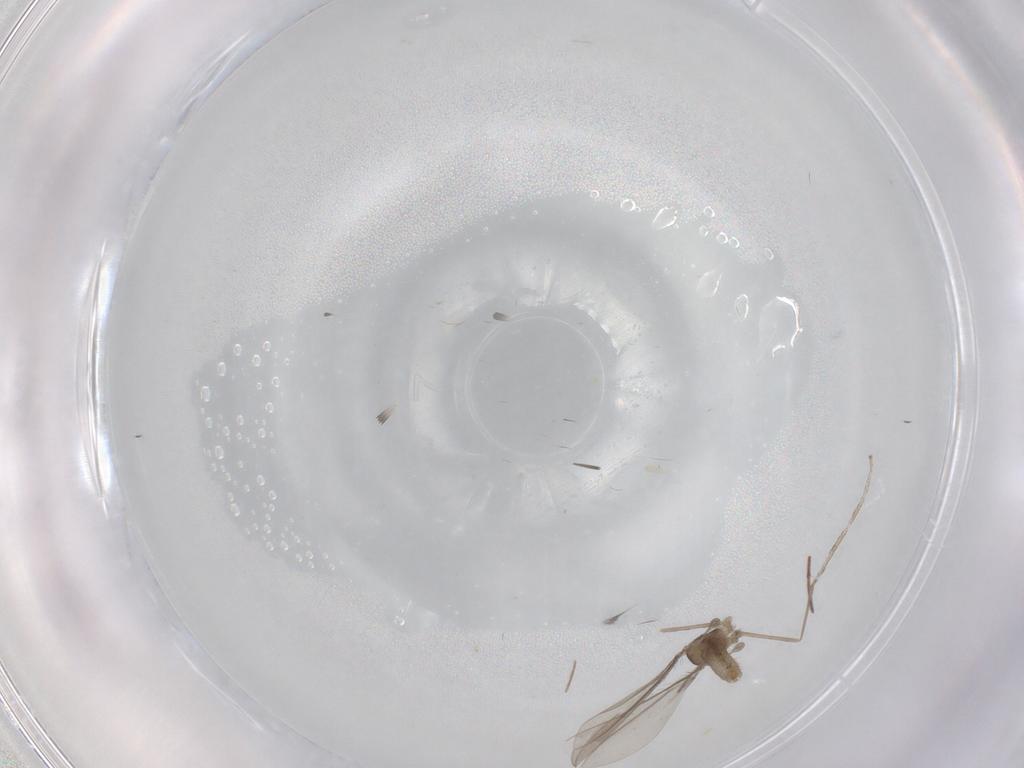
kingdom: Animalia
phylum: Arthropoda
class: Insecta
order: Diptera
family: Cecidomyiidae
